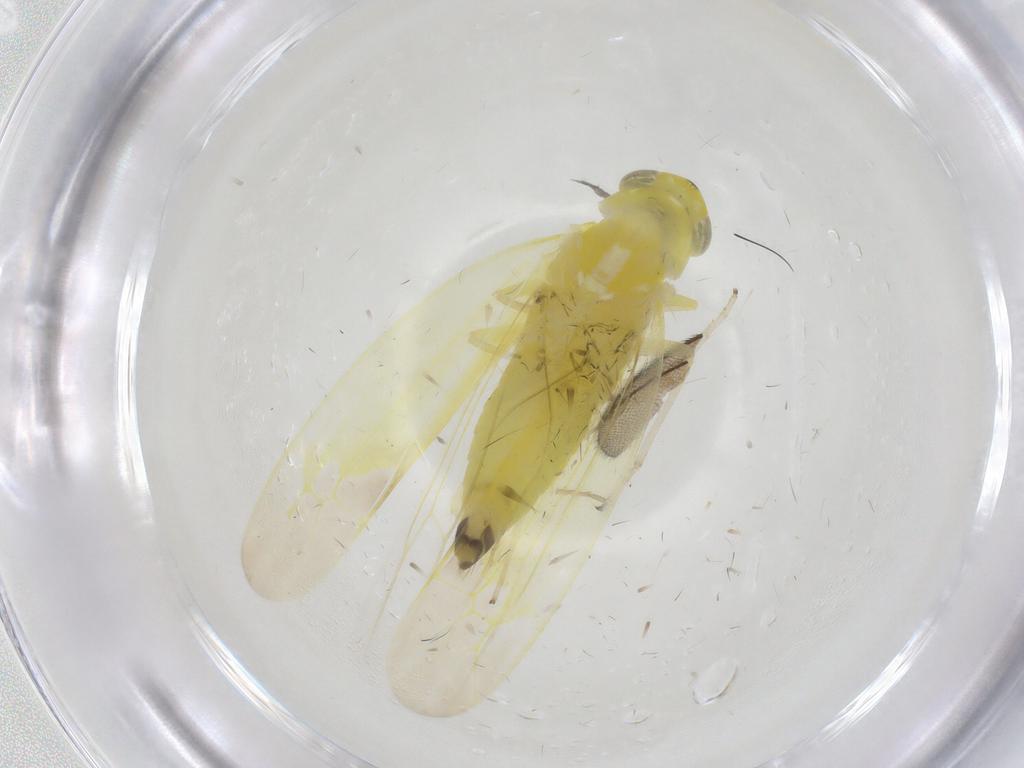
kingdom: Animalia
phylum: Arthropoda
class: Insecta
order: Hemiptera
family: Cicadellidae
